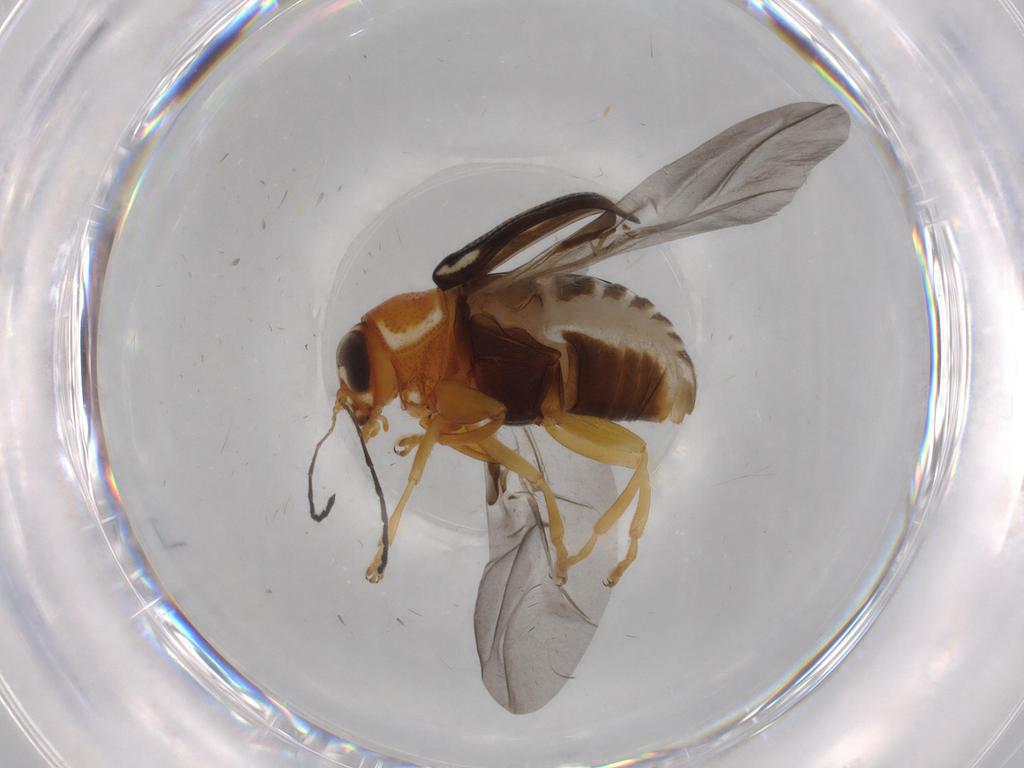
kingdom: Animalia
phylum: Arthropoda
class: Insecta
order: Coleoptera
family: Chrysomelidae
